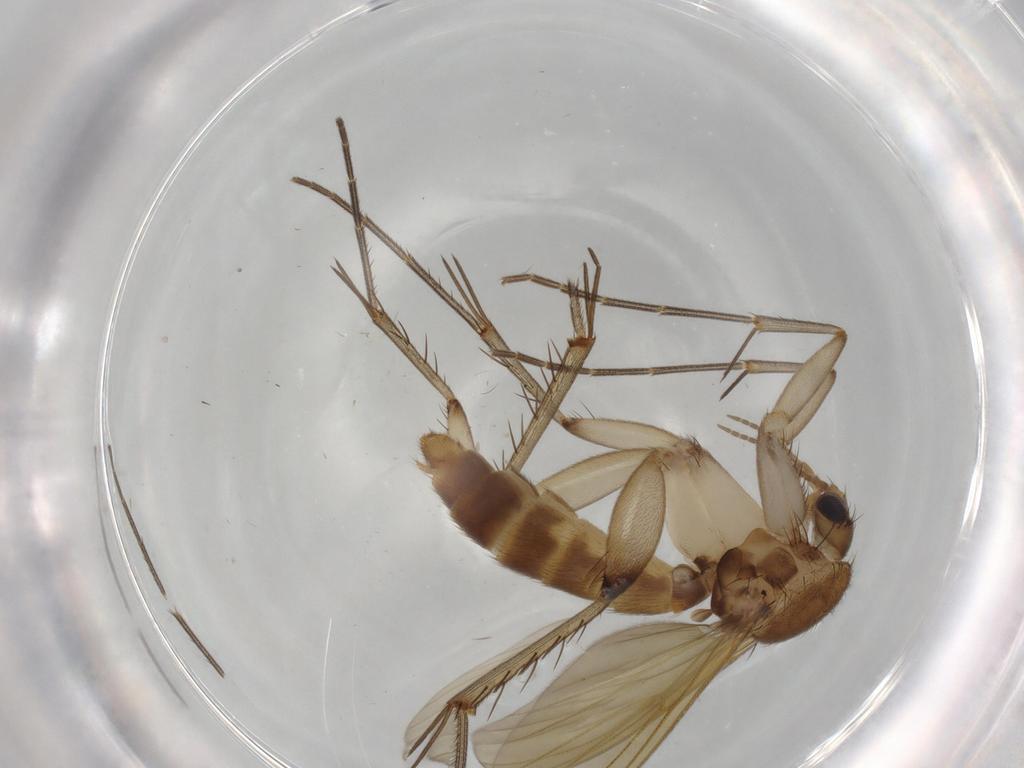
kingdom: Animalia
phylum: Arthropoda
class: Insecta
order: Diptera
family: Mycetophilidae
